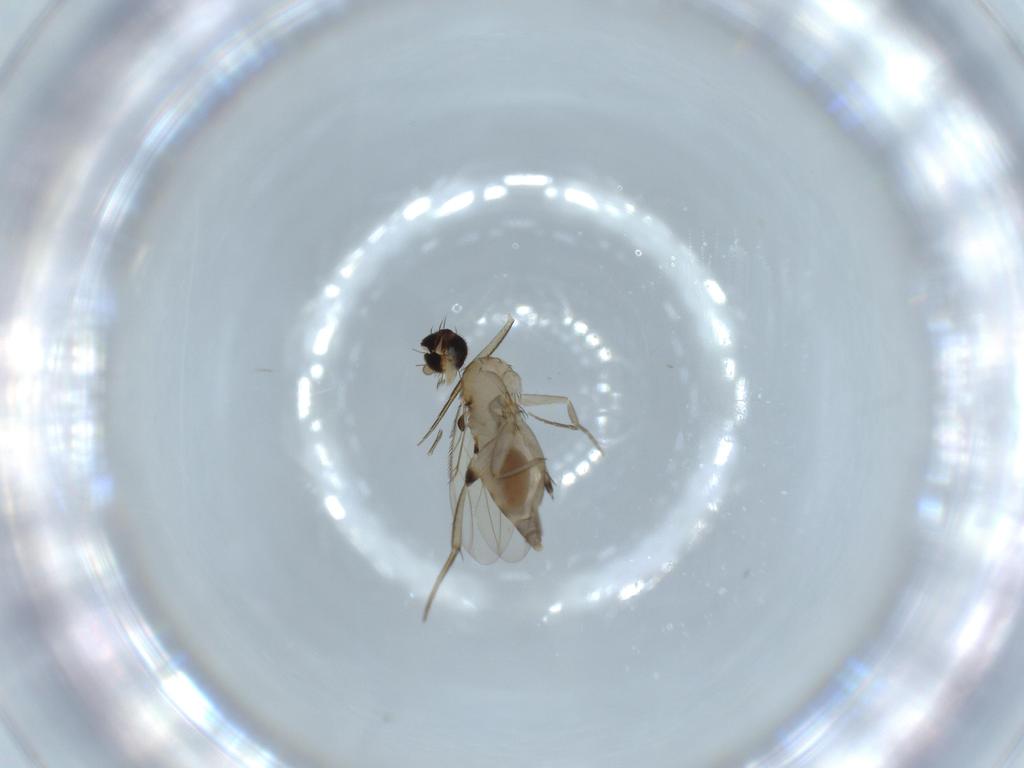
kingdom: Animalia
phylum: Arthropoda
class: Insecta
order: Diptera
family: Phoridae
